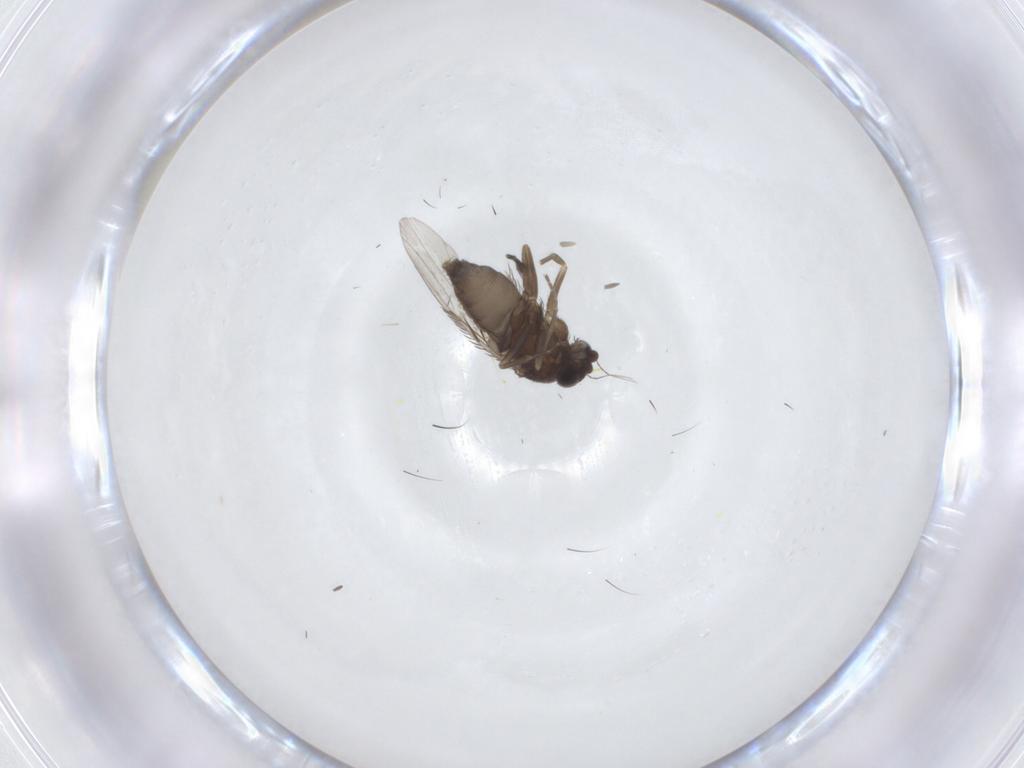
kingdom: Animalia
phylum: Arthropoda
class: Insecta
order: Diptera
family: Phoridae
